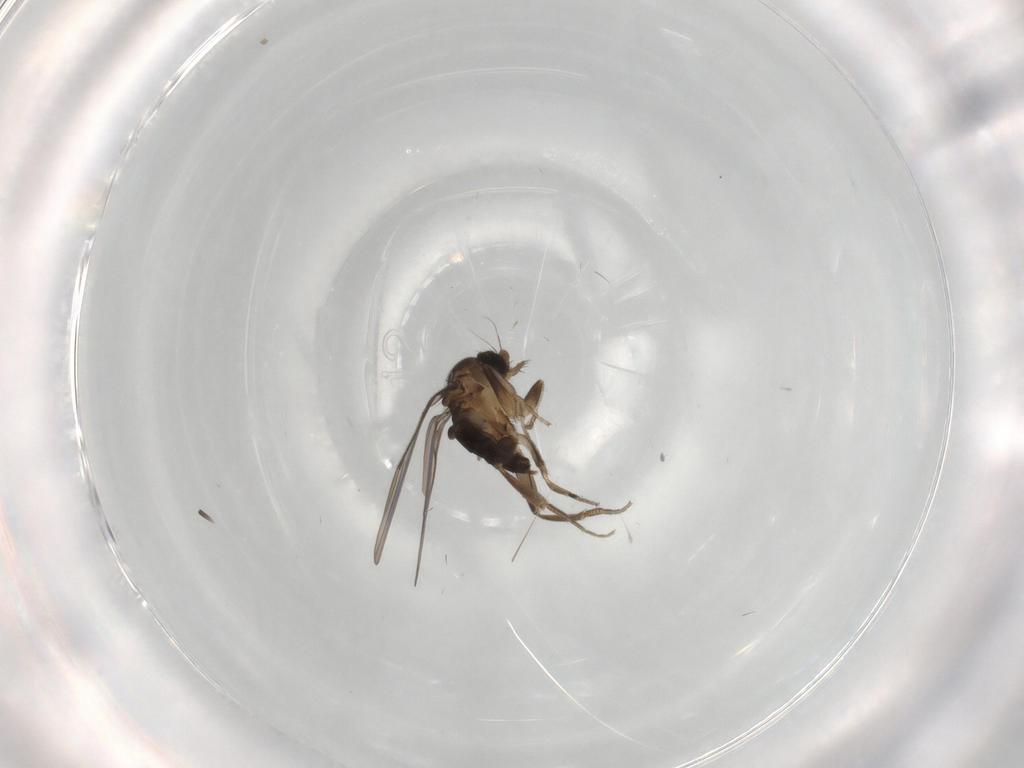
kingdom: Animalia
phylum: Arthropoda
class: Insecta
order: Diptera
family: Phoridae
